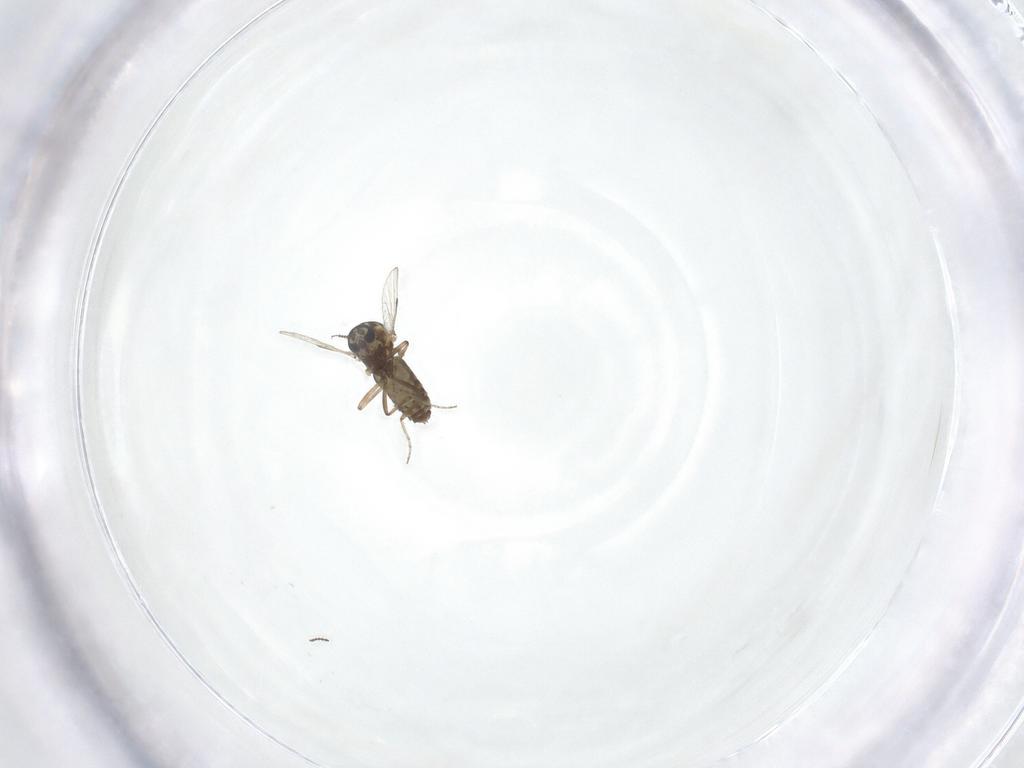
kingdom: Animalia
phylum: Arthropoda
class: Insecta
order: Diptera
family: Ceratopogonidae
